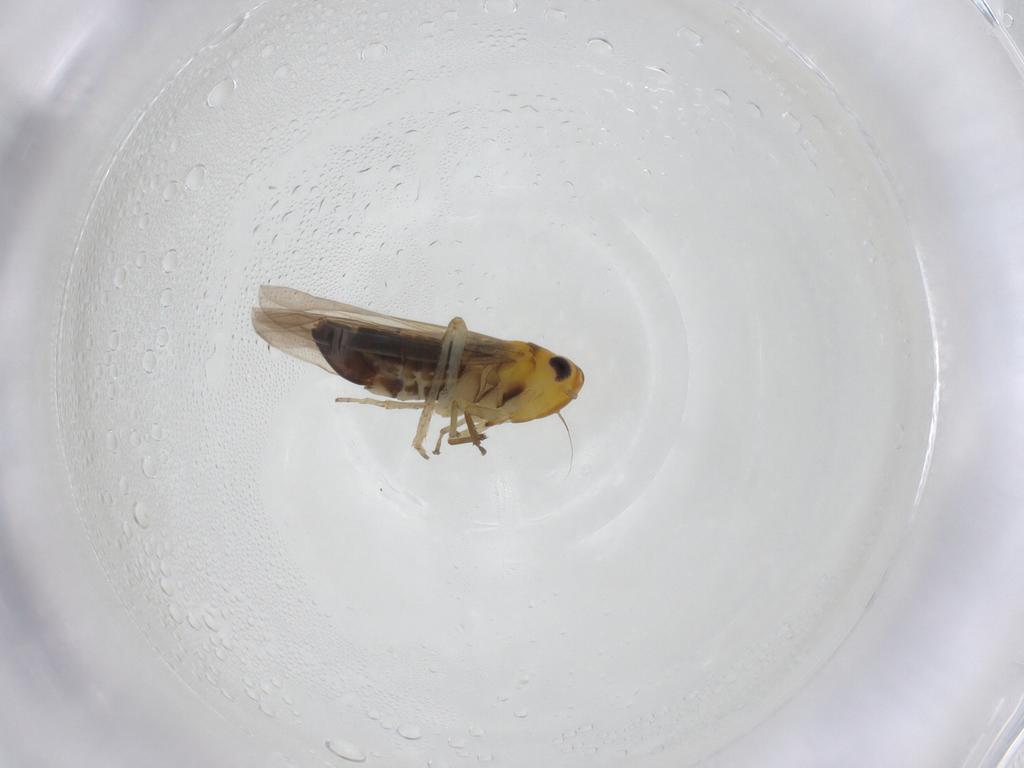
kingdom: Animalia
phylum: Arthropoda
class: Insecta
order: Hemiptera
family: Cicadellidae
